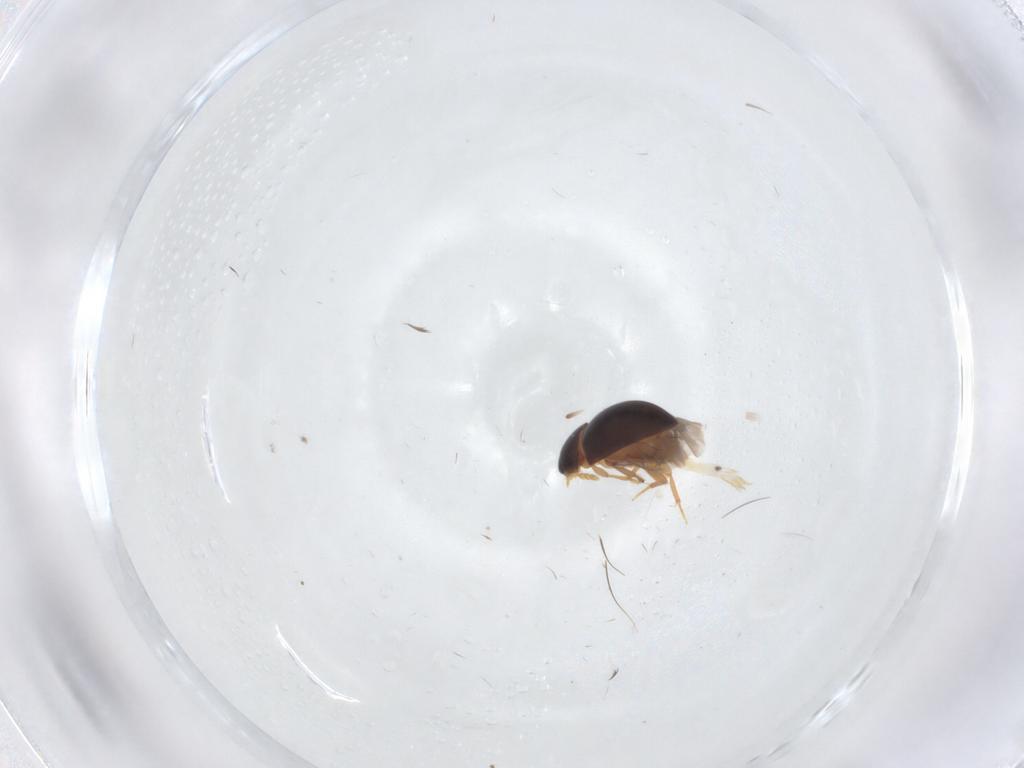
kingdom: Animalia
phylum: Arthropoda
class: Insecta
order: Coleoptera
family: Phalacridae
